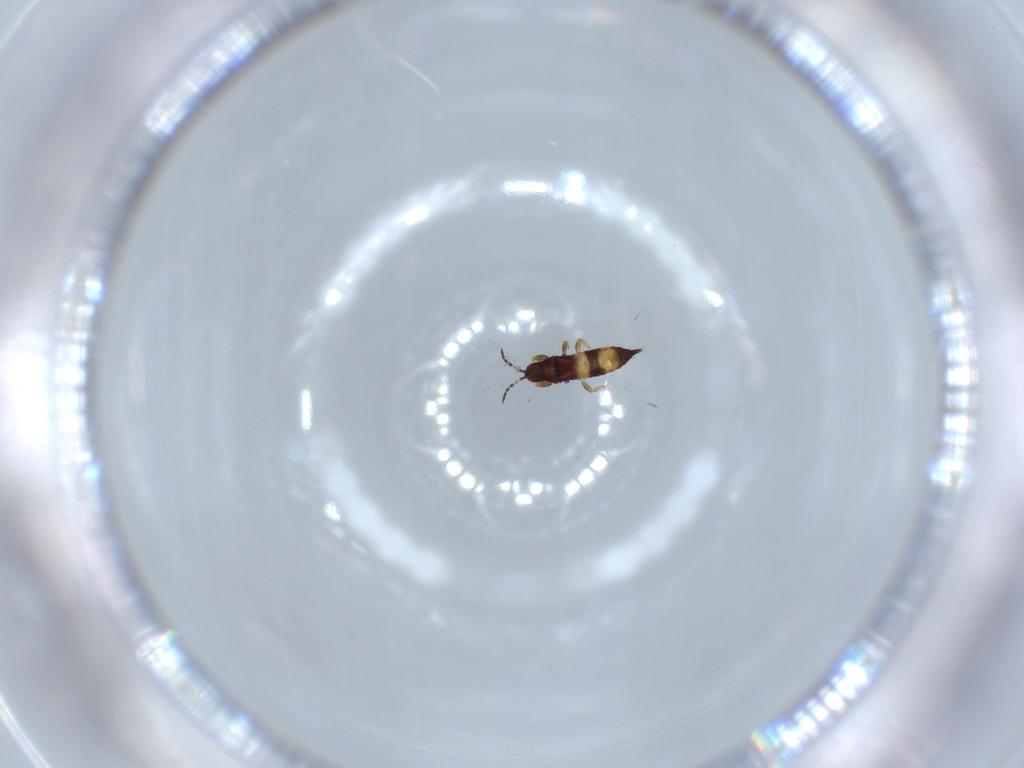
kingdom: Animalia
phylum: Arthropoda
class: Insecta
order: Thysanoptera
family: Phlaeothripidae
